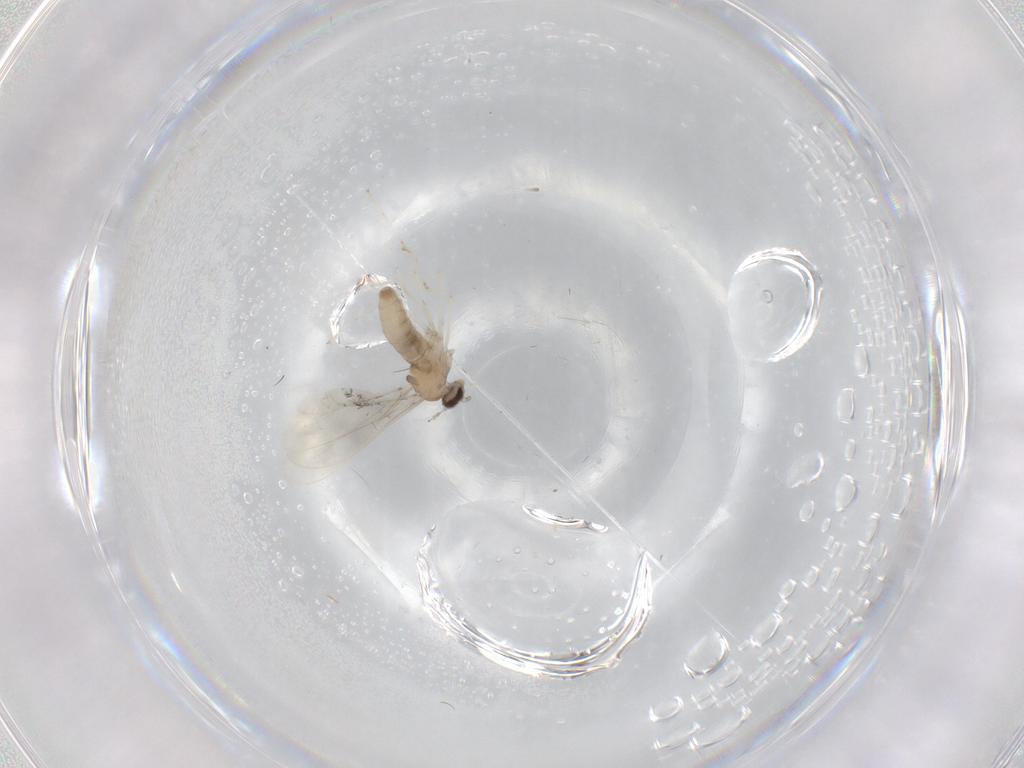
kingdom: Animalia
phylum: Arthropoda
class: Insecta
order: Diptera
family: Cecidomyiidae
